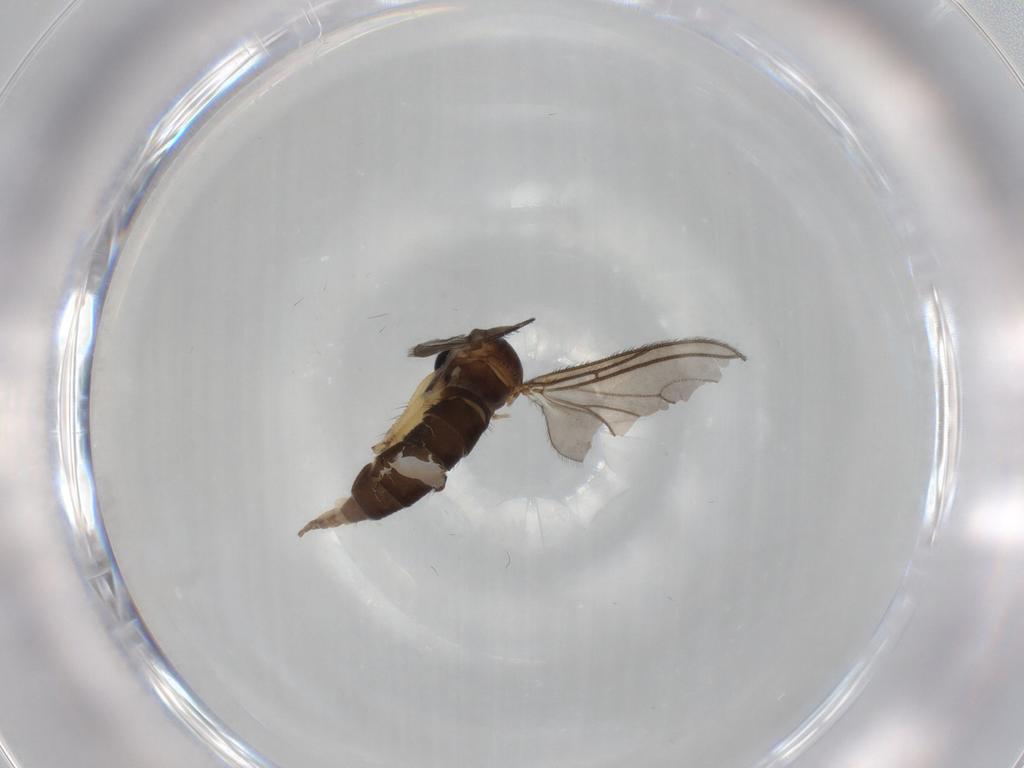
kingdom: Animalia
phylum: Arthropoda
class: Insecta
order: Diptera
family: Sciaridae
